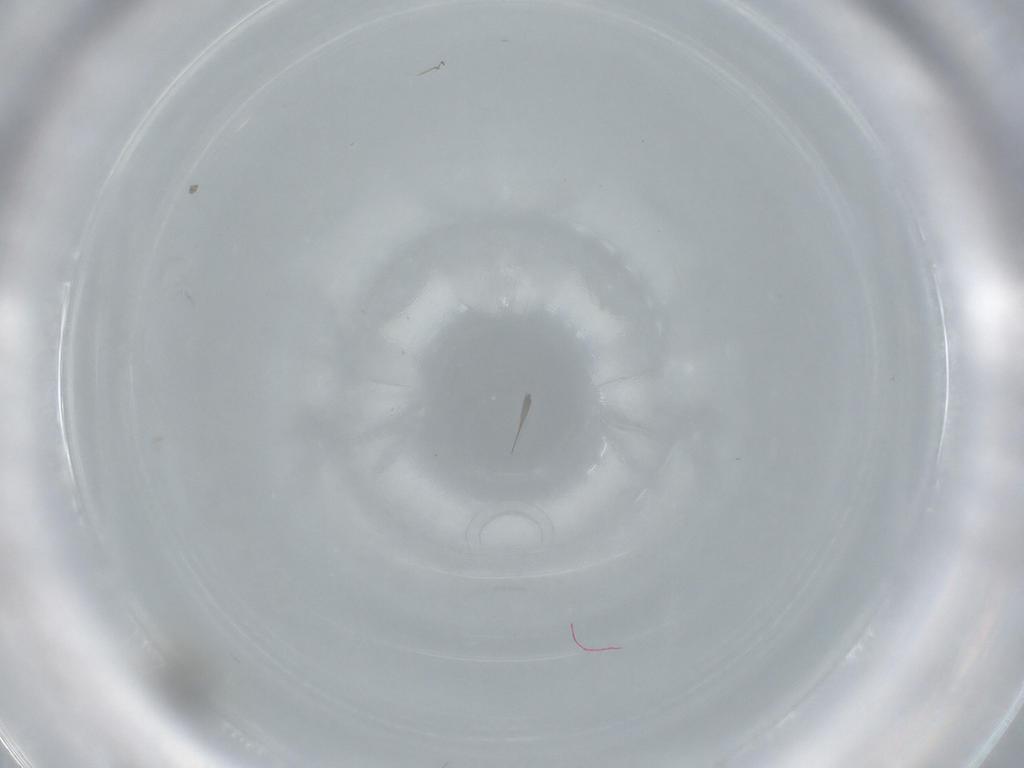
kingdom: Animalia
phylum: Arthropoda
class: Insecta
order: Hymenoptera
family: Scelionidae
